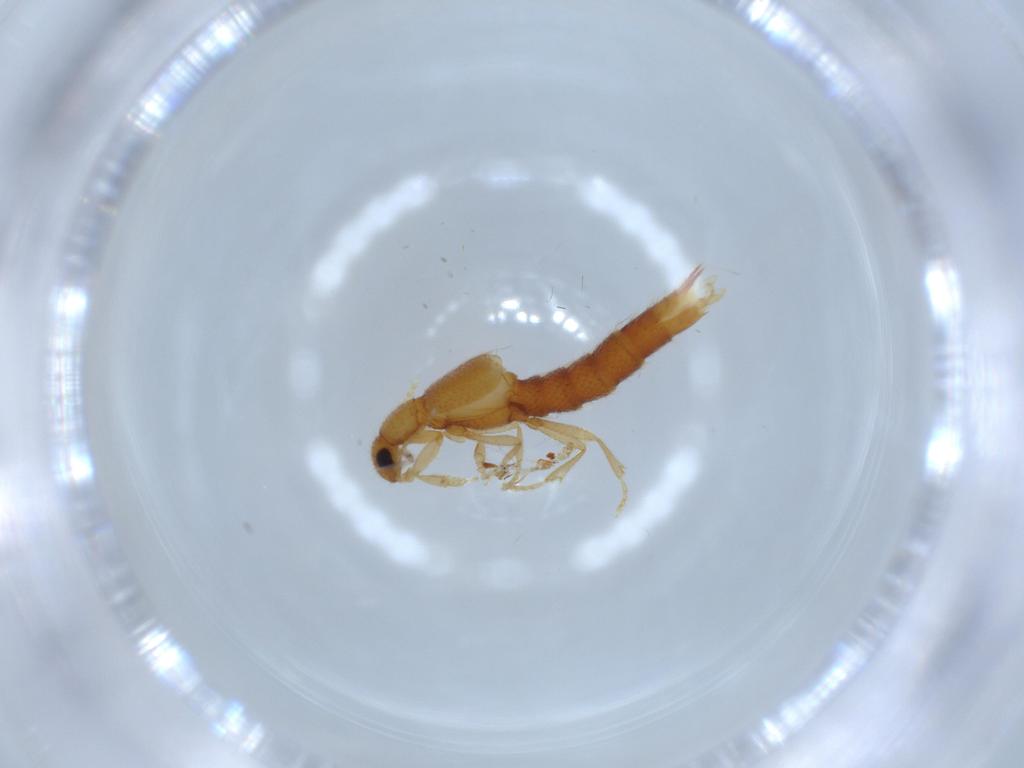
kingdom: Animalia
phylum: Arthropoda
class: Insecta
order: Coleoptera
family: Staphylinidae
